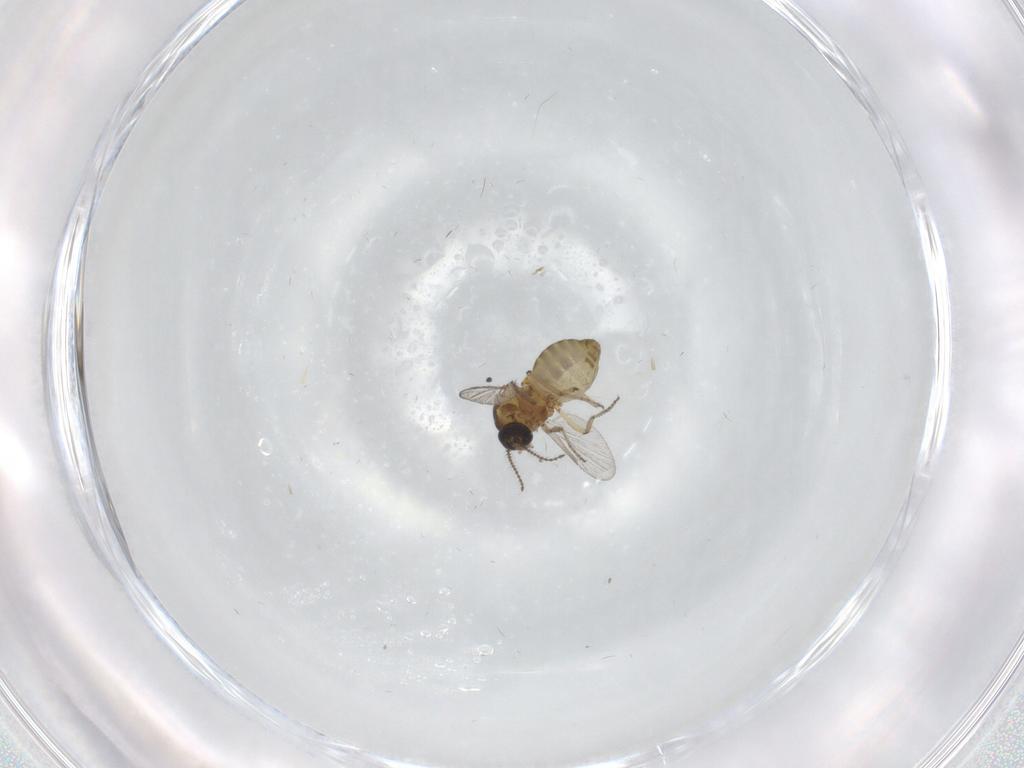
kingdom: Animalia
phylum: Arthropoda
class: Insecta
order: Diptera
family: Ceratopogonidae
